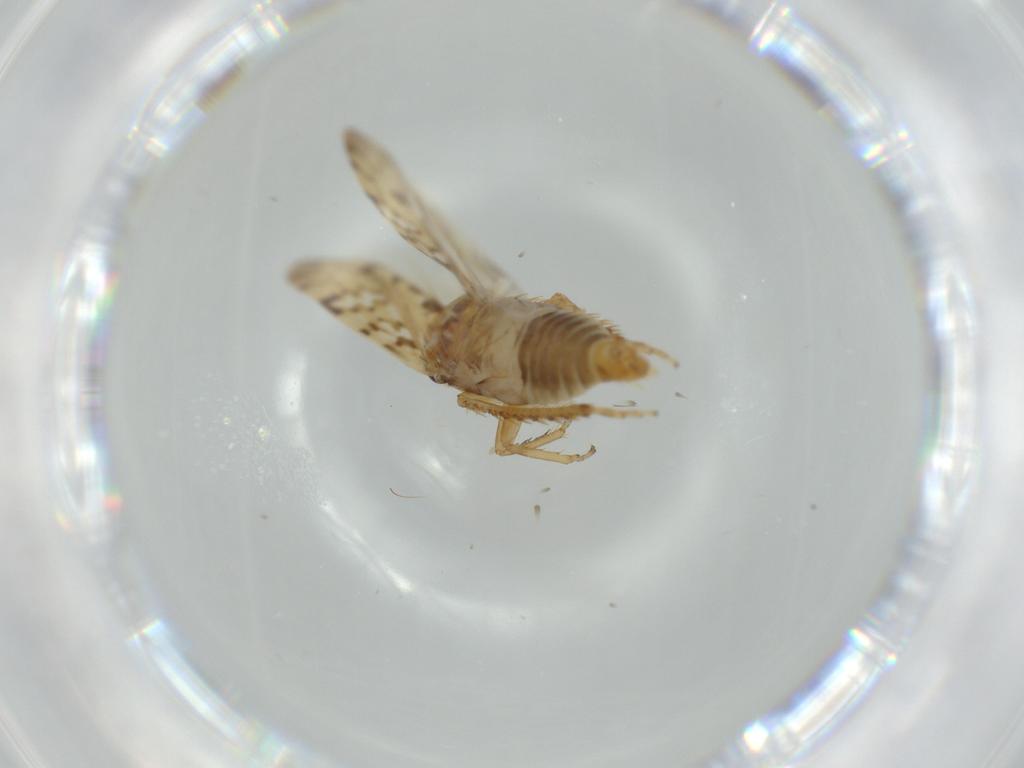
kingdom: Animalia
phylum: Arthropoda
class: Insecta
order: Hemiptera
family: Cicadellidae
